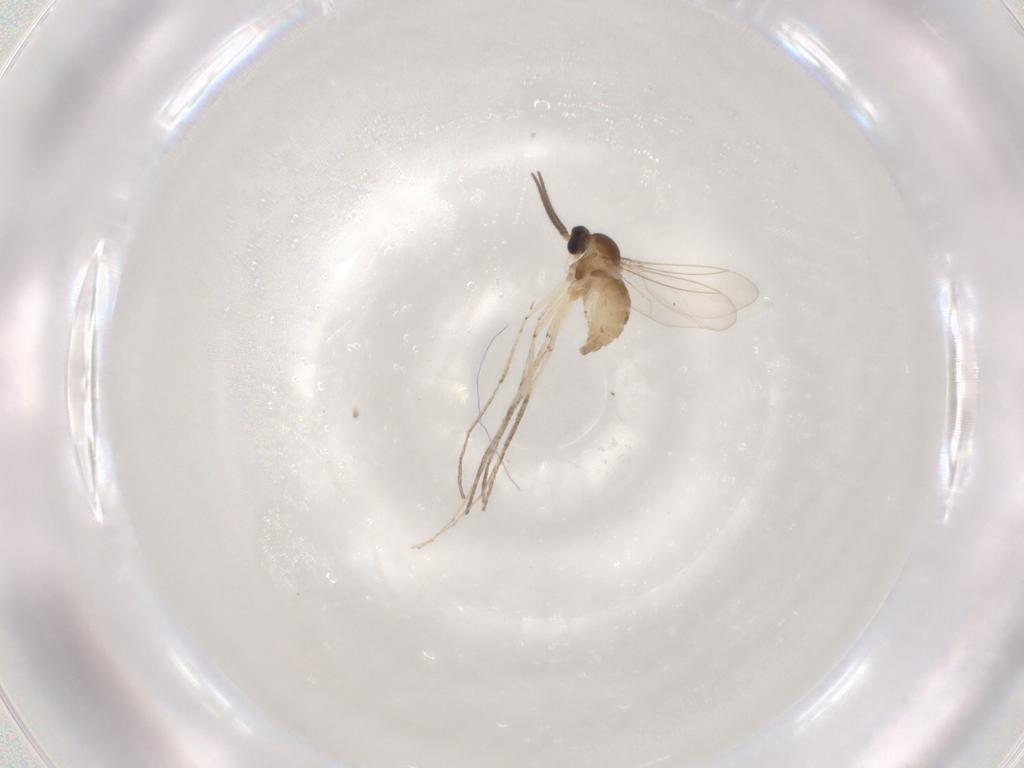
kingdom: Animalia
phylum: Arthropoda
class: Insecta
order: Diptera
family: Cecidomyiidae
